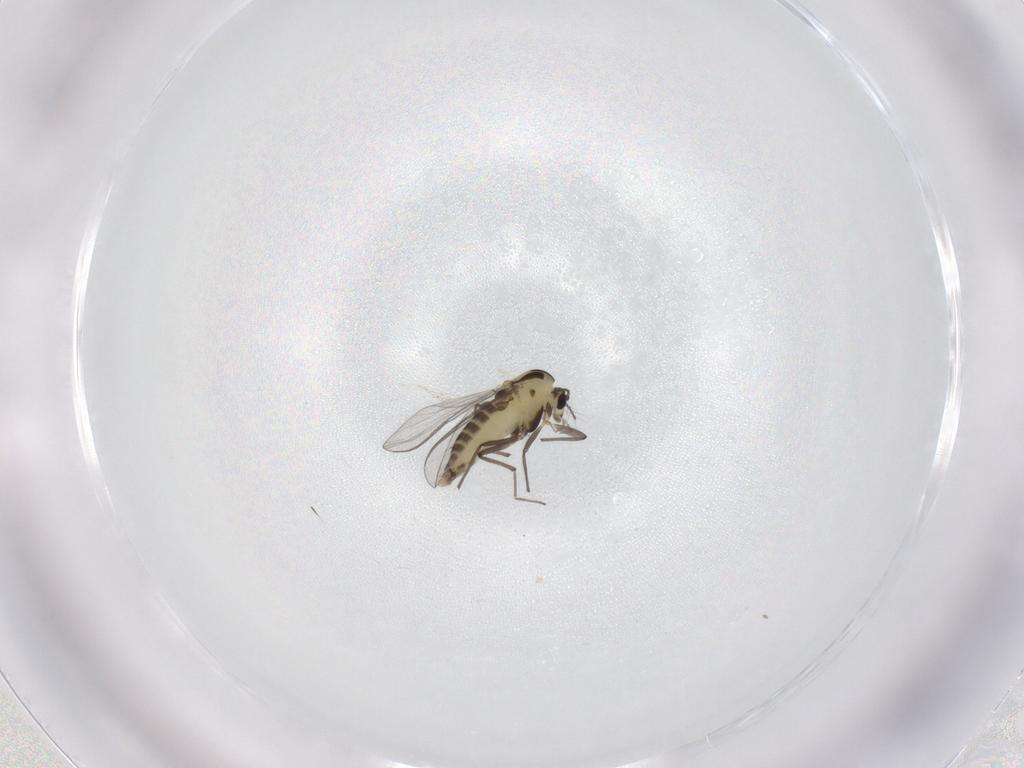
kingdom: Animalia
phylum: Arthropoda
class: Insecta
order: Diptera
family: Chironomidae
